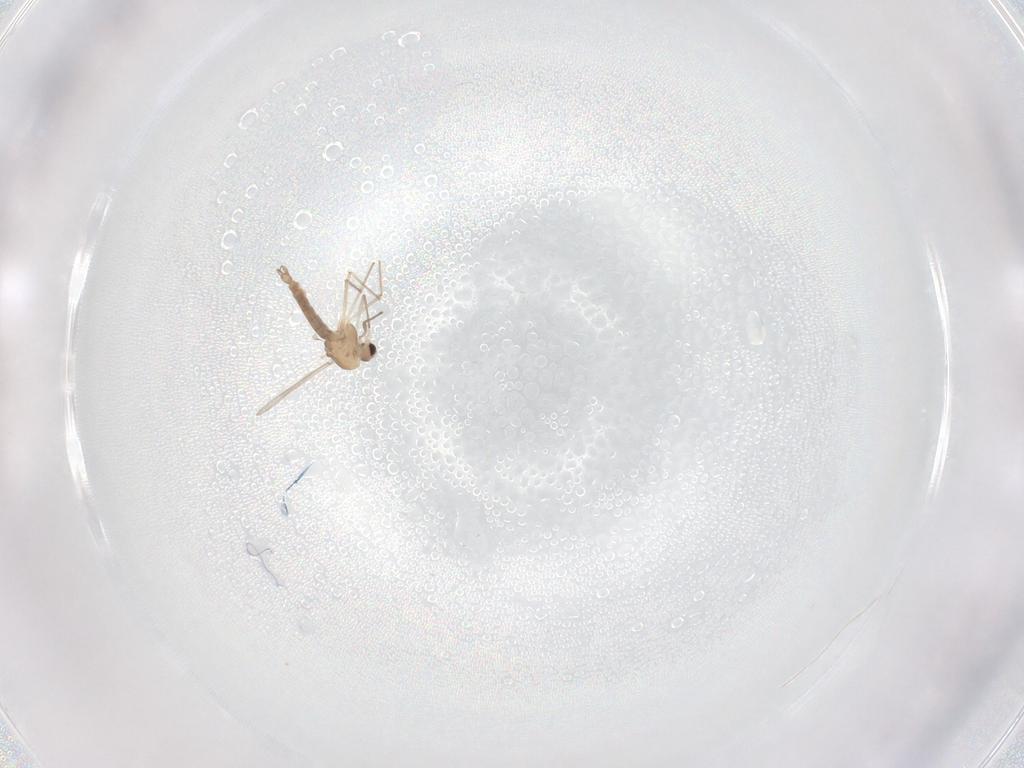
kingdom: Animalia
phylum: Arthropoda
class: Insecta
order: Diptera
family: Chironomidae
